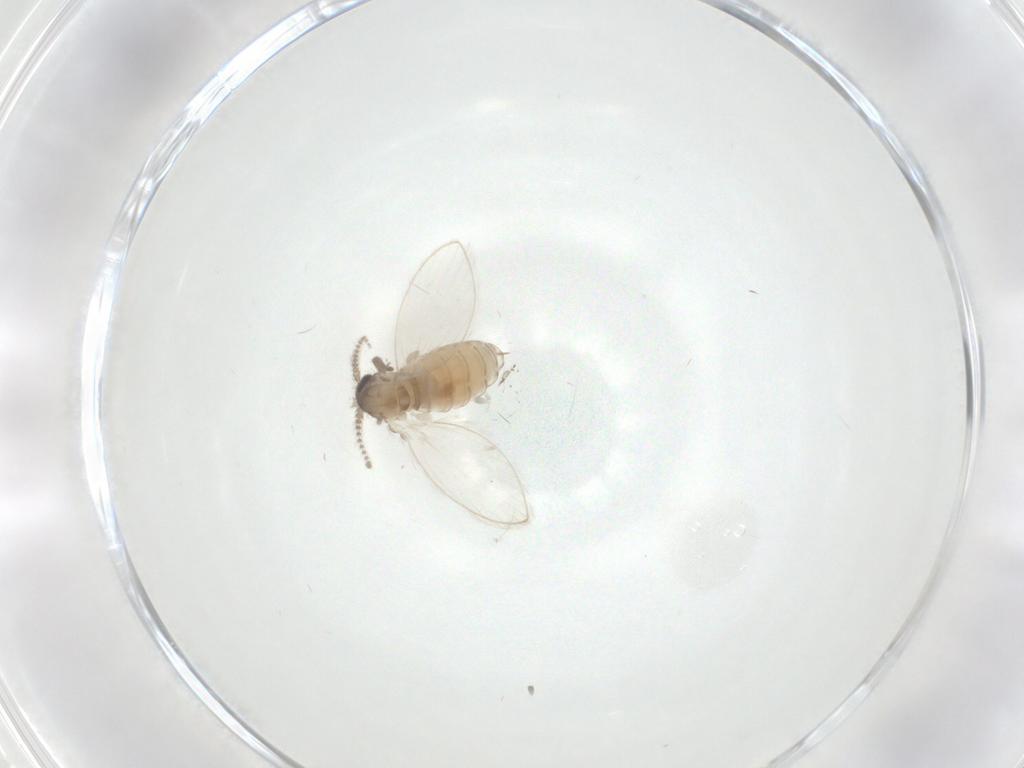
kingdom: Animalia
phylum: Arthropoda
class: Insecta
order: Diptera
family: Psychodidae
